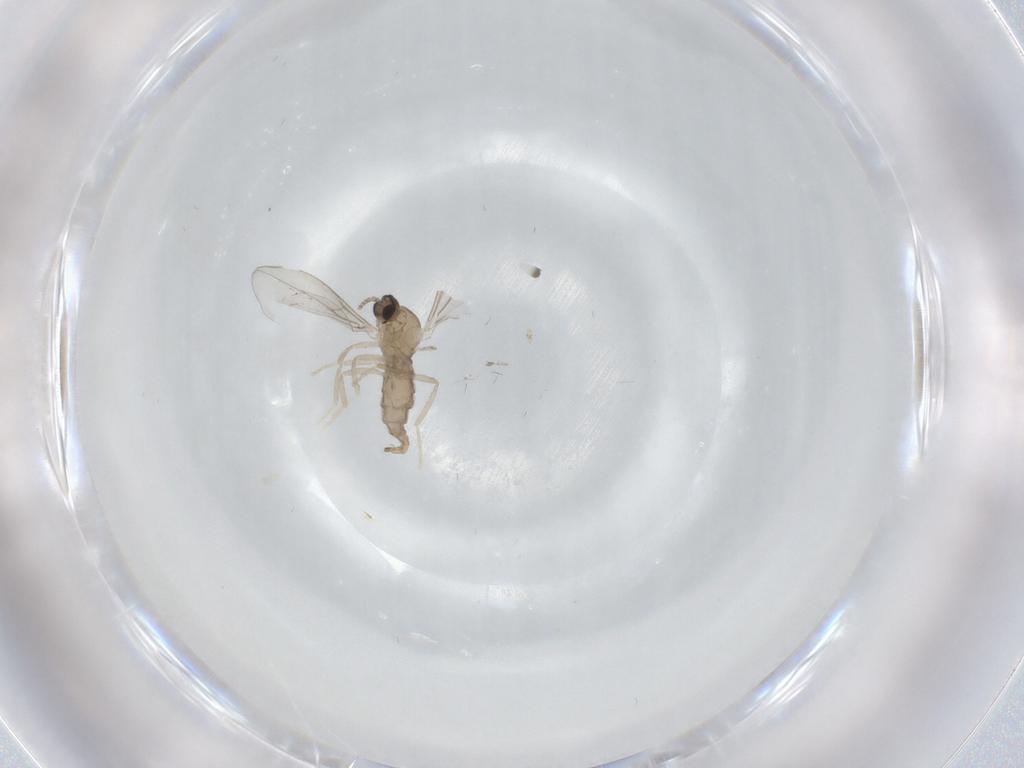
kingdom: Animalia
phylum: Arthropoda
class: Insecta
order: Diptera
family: Cecidomyiidae
